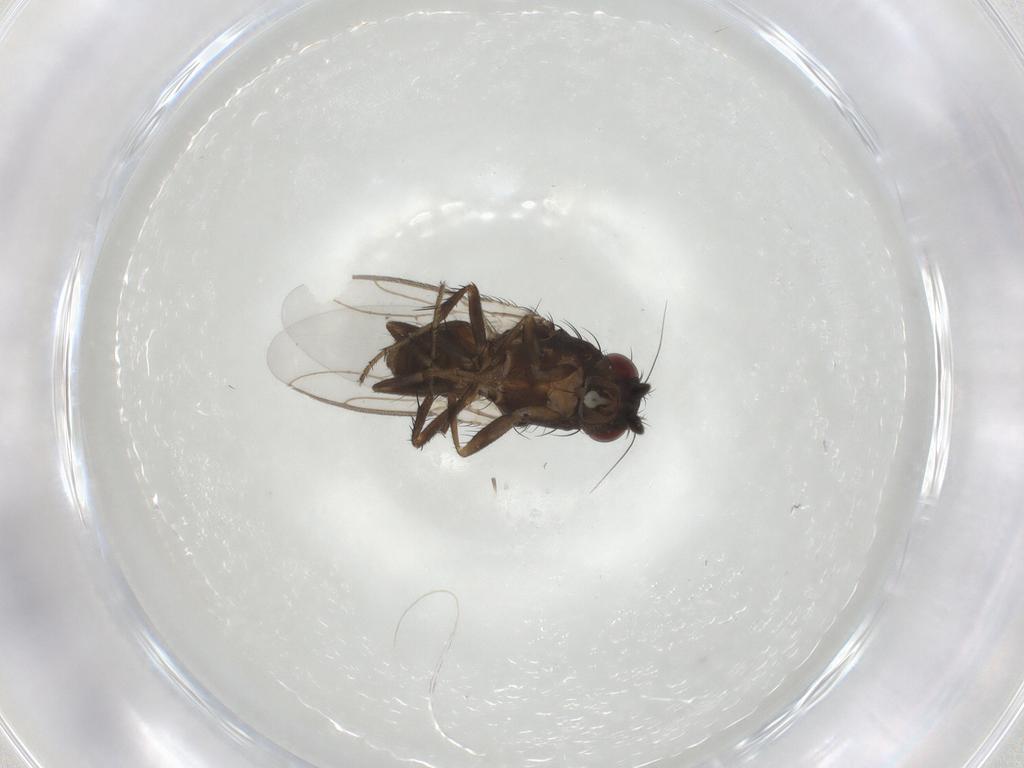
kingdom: Animalia
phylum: Arthropoda
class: Insecta
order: Diptera
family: Sphaeroceridae
